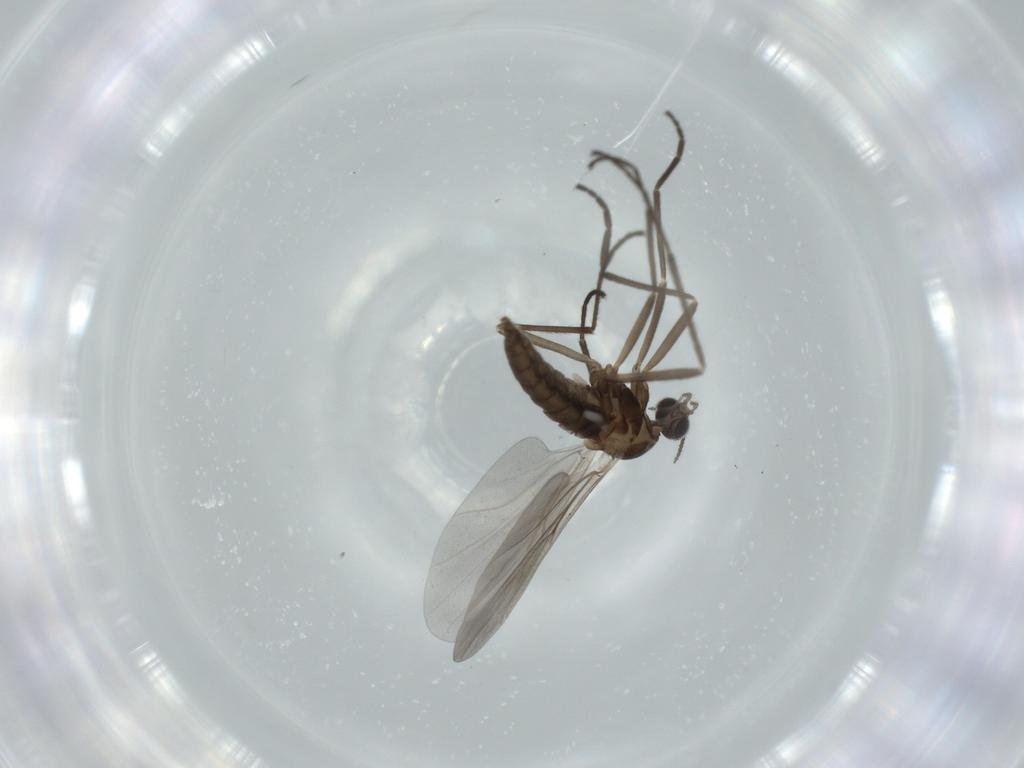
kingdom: Animalia
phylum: Arthropoda
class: Insecta
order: Diptera
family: Cecidomyiidae
